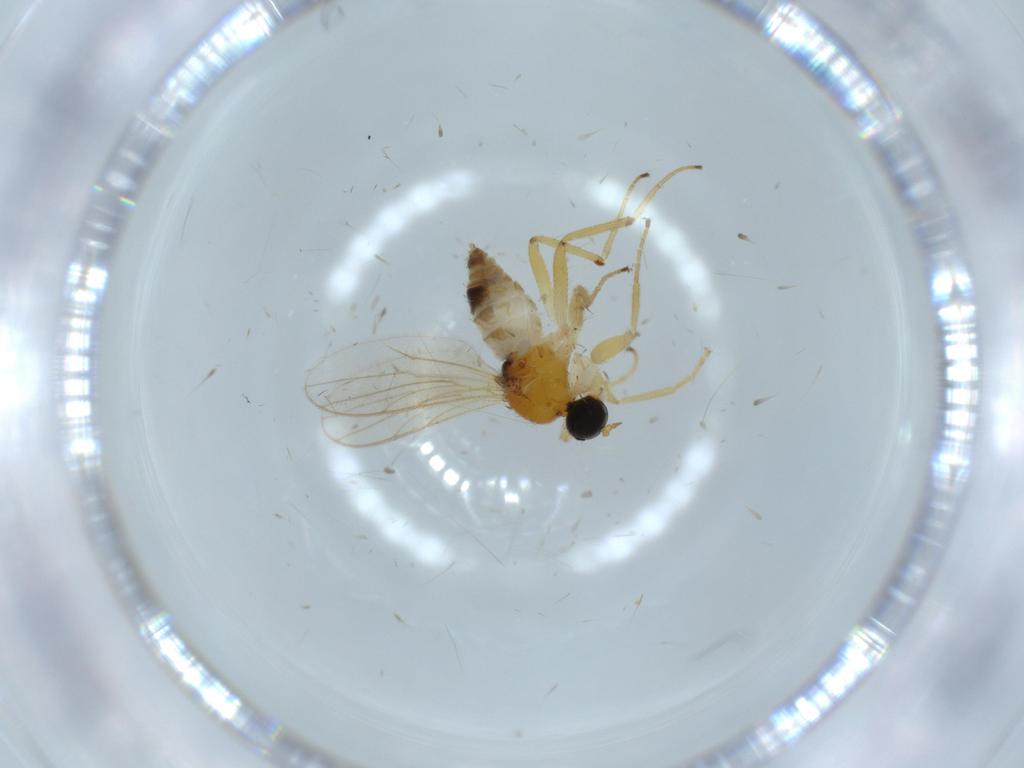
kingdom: Animalia
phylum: Arthropoda
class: Insecta
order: Diptera
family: Hybotidae
